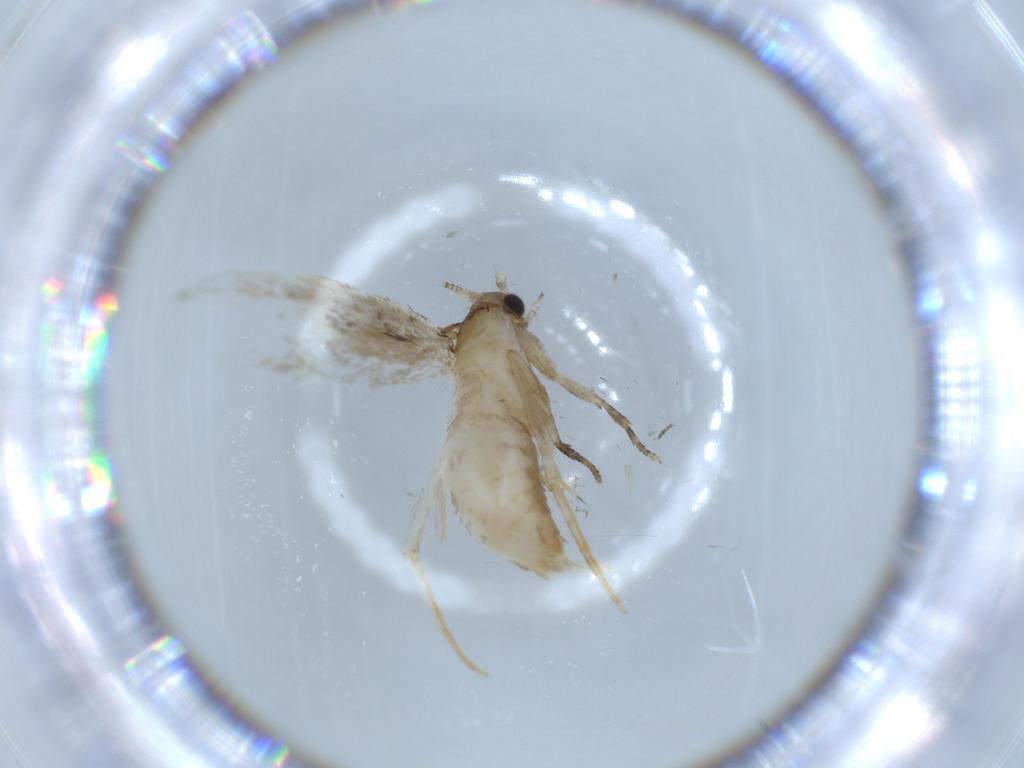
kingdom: Animalia
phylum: Arthropoda
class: Insecta
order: Lepidoptera
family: Tineidae
